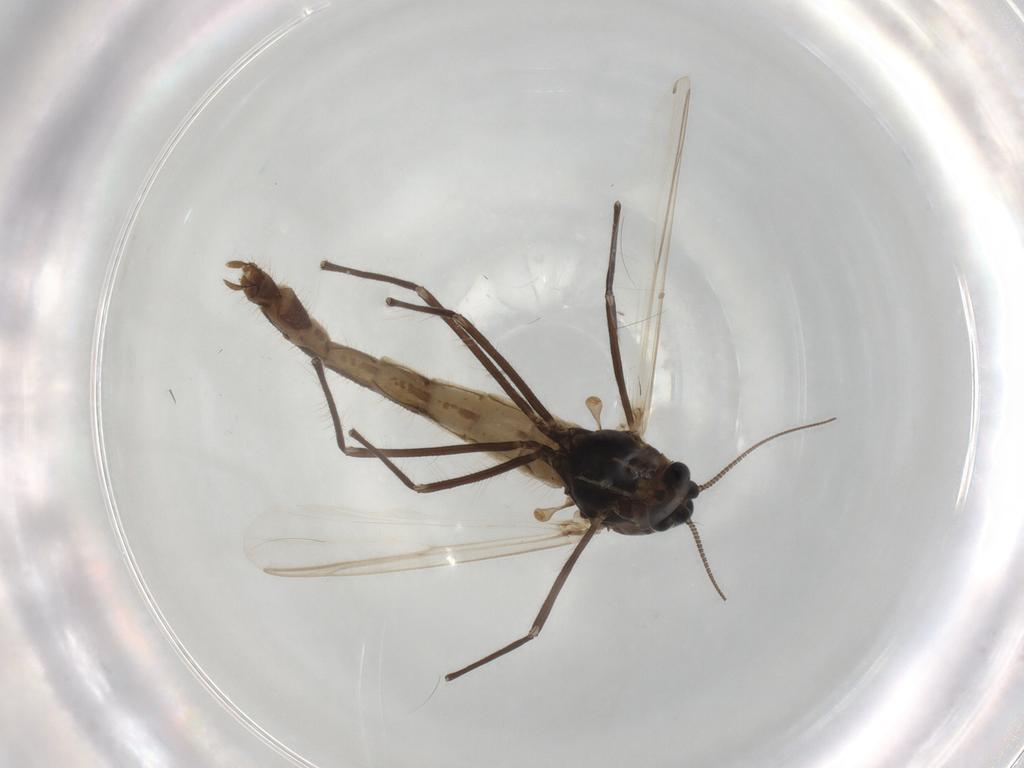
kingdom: Animalia
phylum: Arthropoda
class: Insecta
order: Diptera
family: Chironomidae
